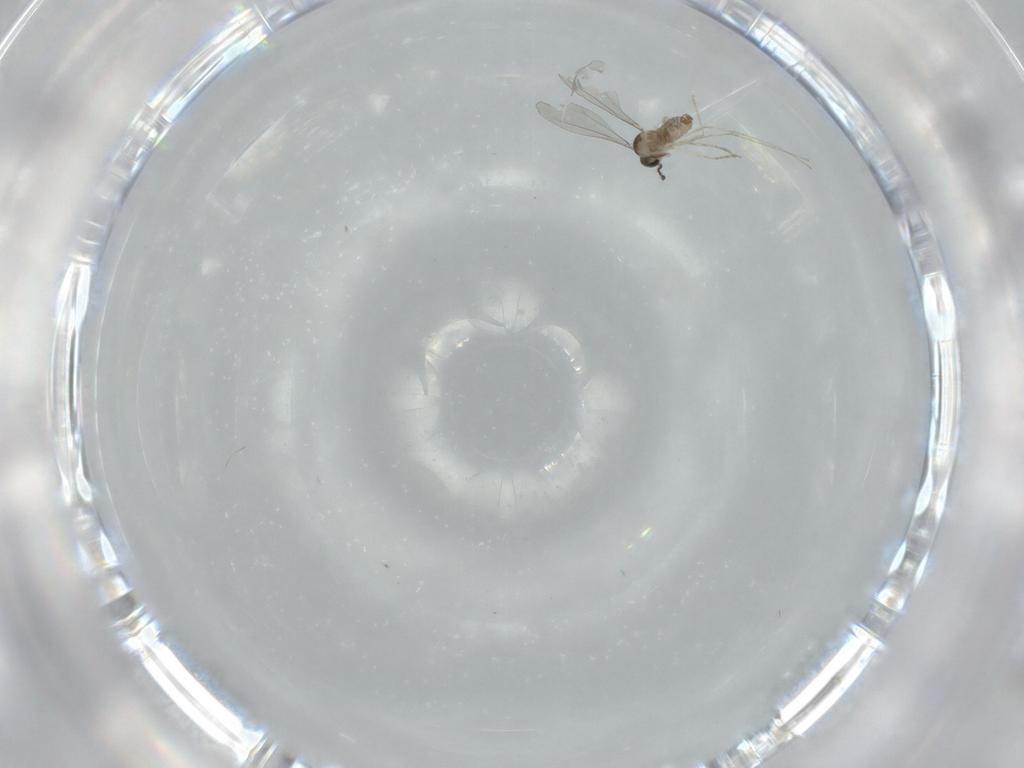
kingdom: Animalia
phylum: Arthropoda
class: Insecta
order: Diptera
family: Cecidomyiidae
